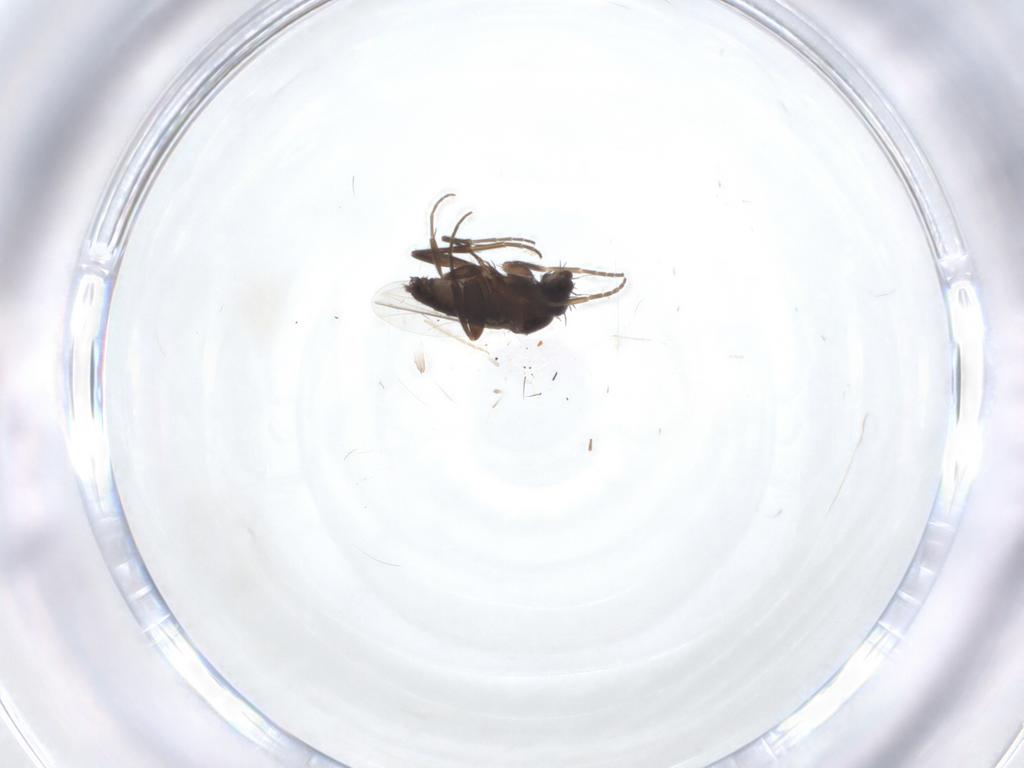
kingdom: Animalia
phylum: Arthropoda
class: Insecta
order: Diptera
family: Phoridae
